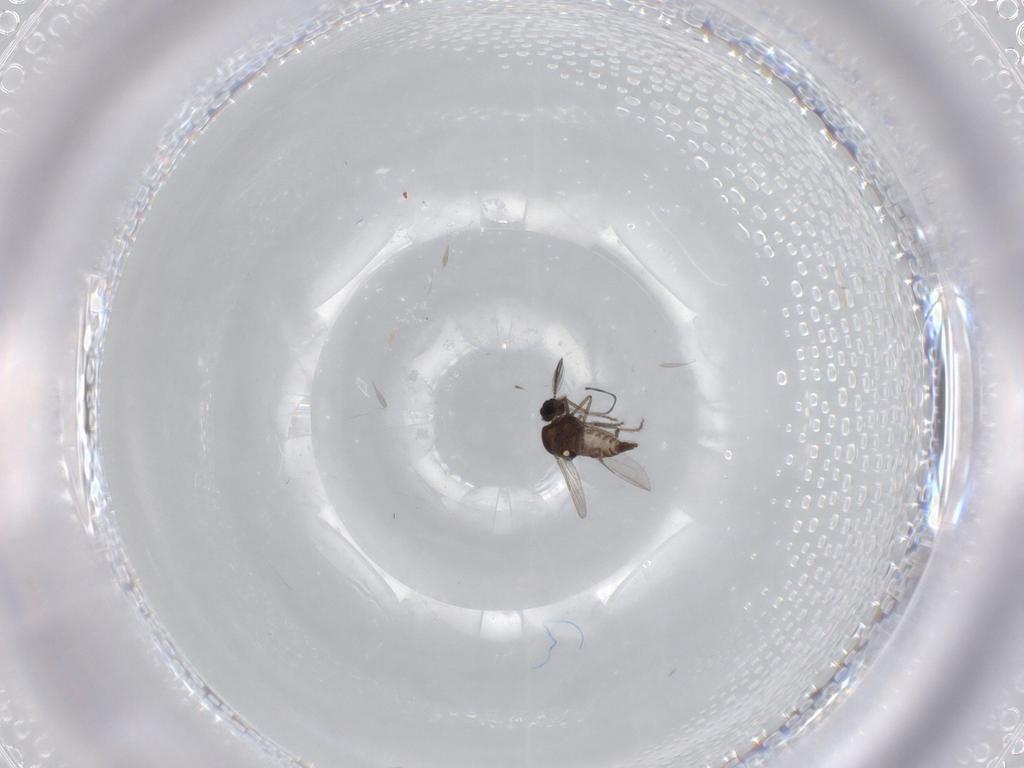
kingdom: Animalia
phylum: Arthropoda
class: Insecta
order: Diptera
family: Ceratopogonidae
